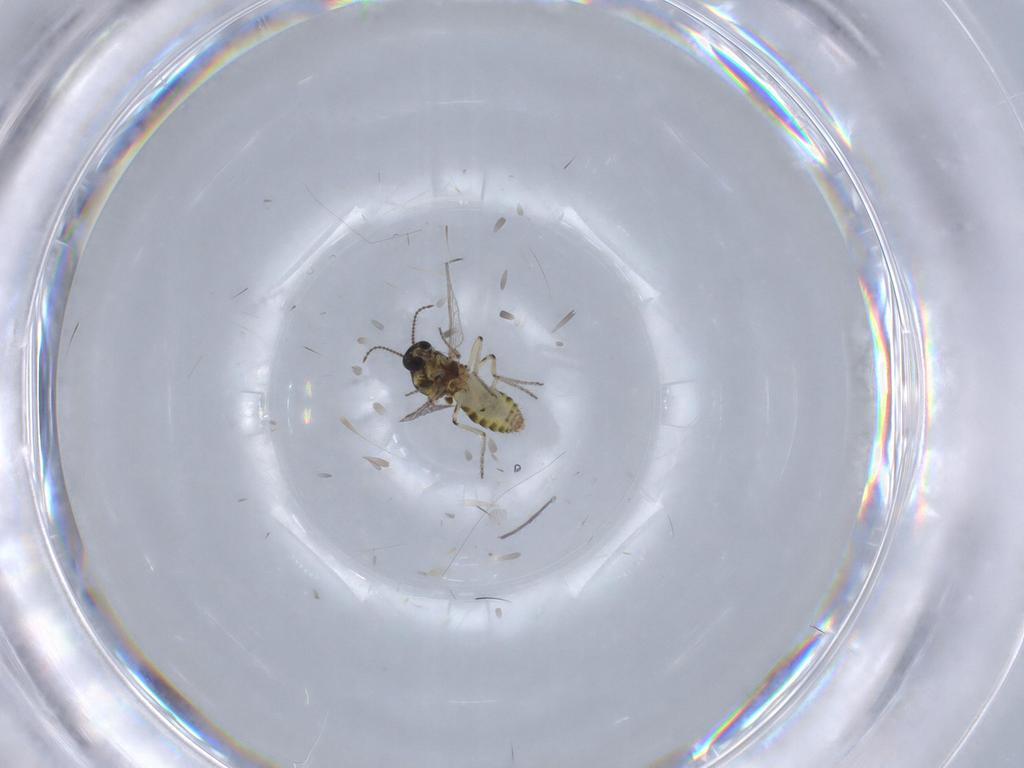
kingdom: Animalia
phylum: Arthropoda
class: Insecta
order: Diptera
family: Ceratopogonidae
